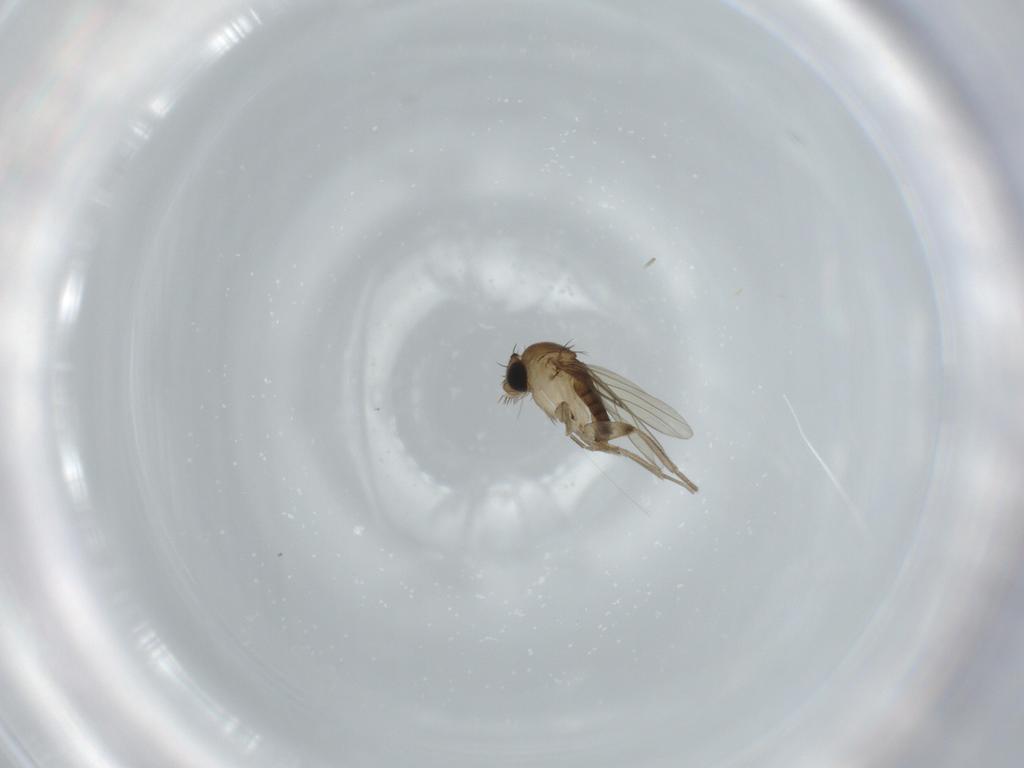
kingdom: Animalia
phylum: Arthropoda
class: Insecta
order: Diptera
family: Phoridae
